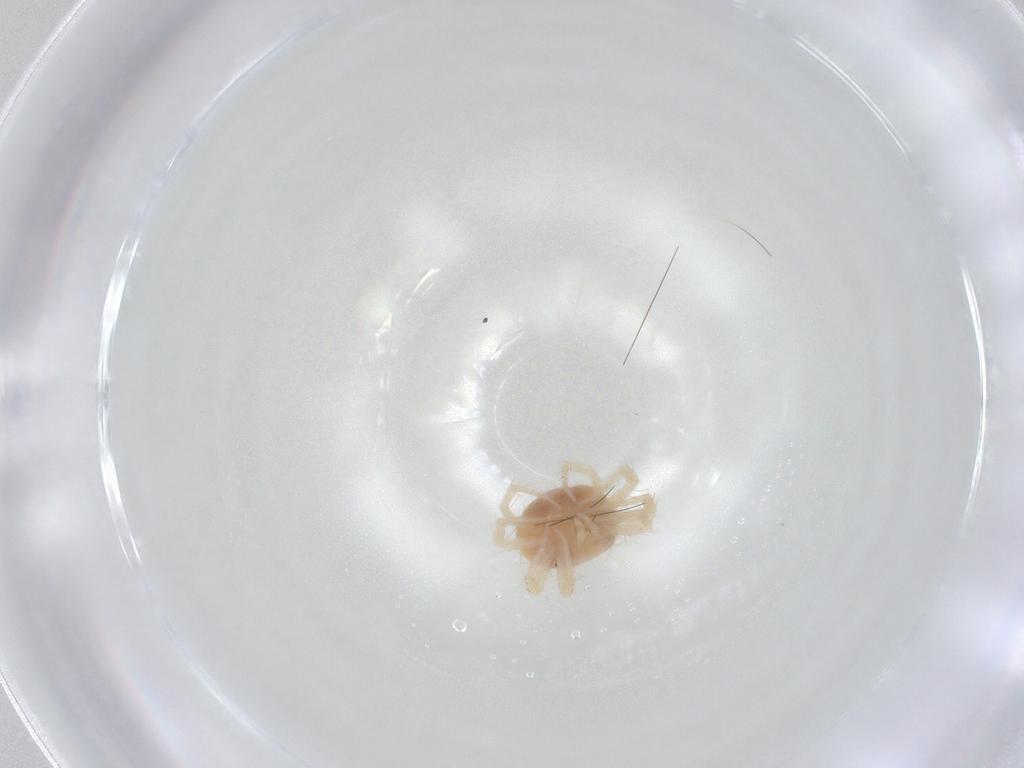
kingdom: Animalia
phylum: Arthropoda
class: Arachnida
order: Trombidiformes
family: Anystidae
